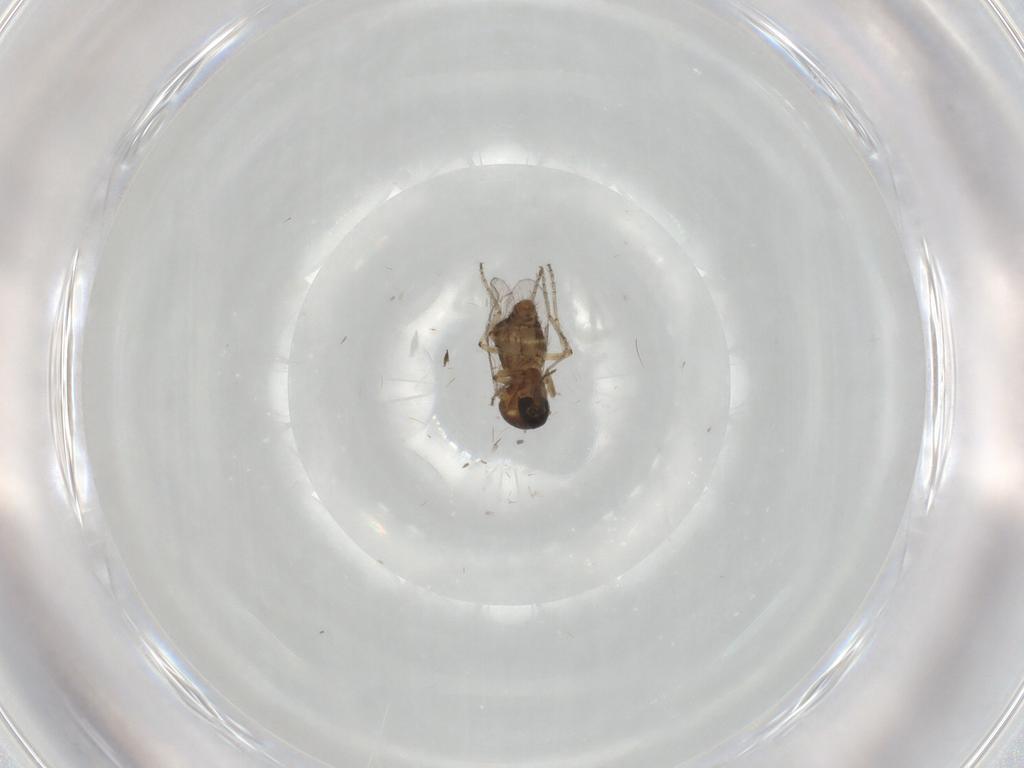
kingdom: Animalia
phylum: Arthropoda
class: Insecta
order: Diptera
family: Ceratopogonidae
